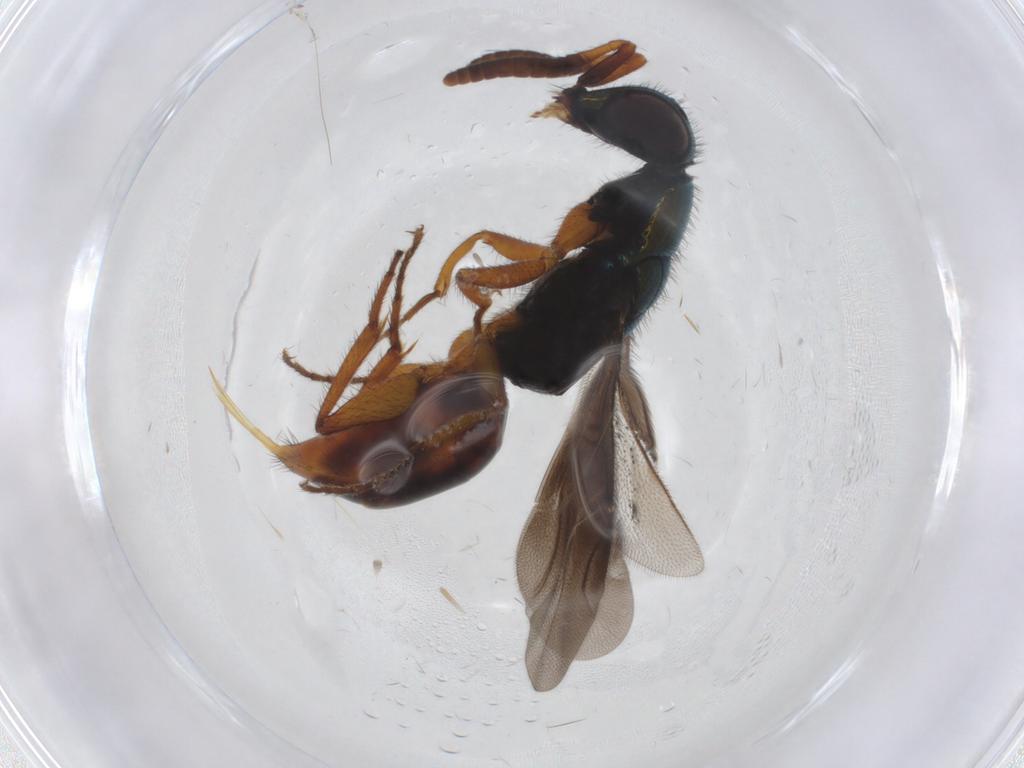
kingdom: Animalia
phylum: Arthropoda
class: Insecta
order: Hymenoptera
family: Chrysididae
